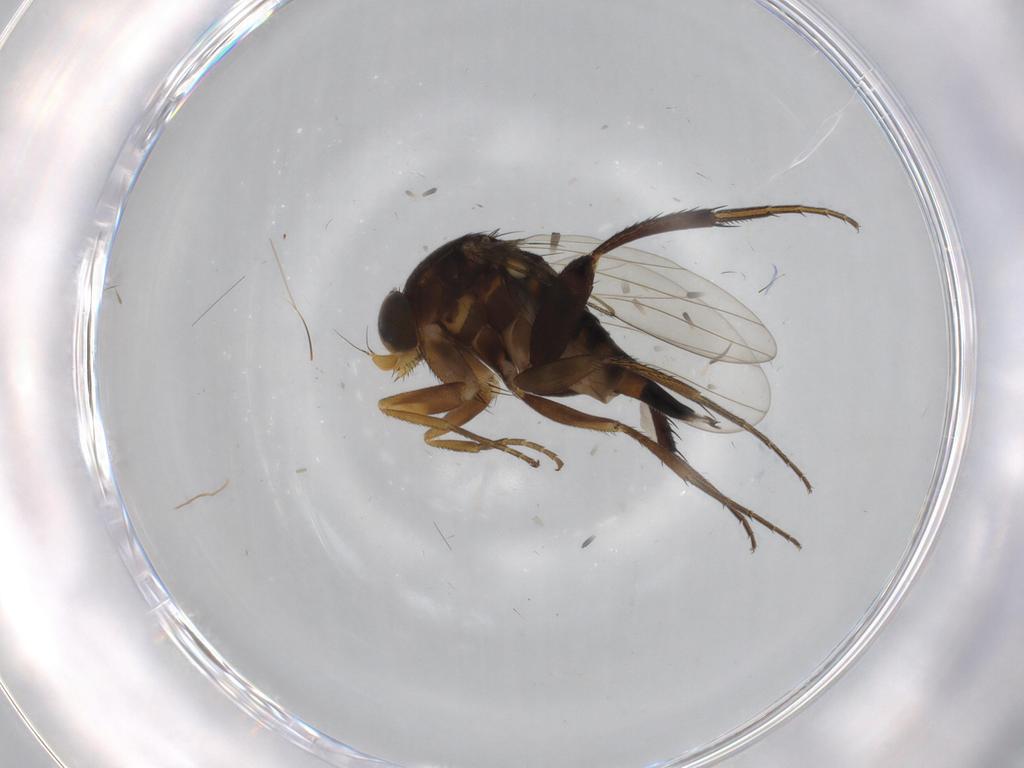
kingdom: Animalia
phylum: Arthropoda
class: Insecta
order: Diptera
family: Phoridae
